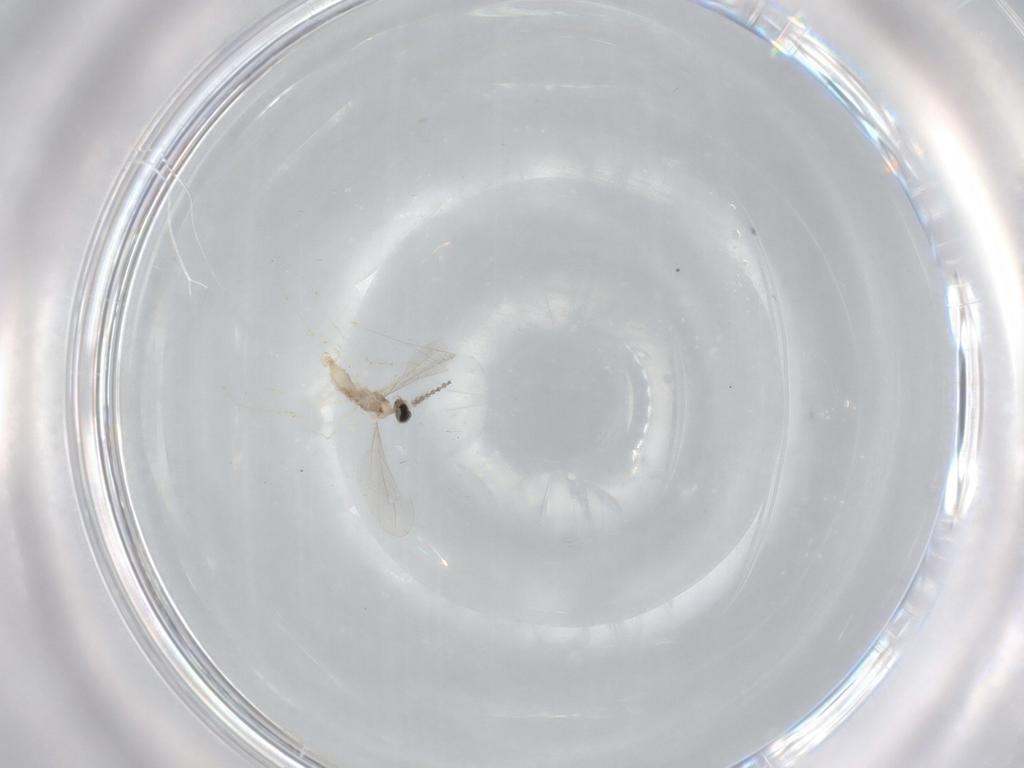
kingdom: Animalia
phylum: Arthropoda
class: Insecta
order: Diptera
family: Cecidomyiidae
